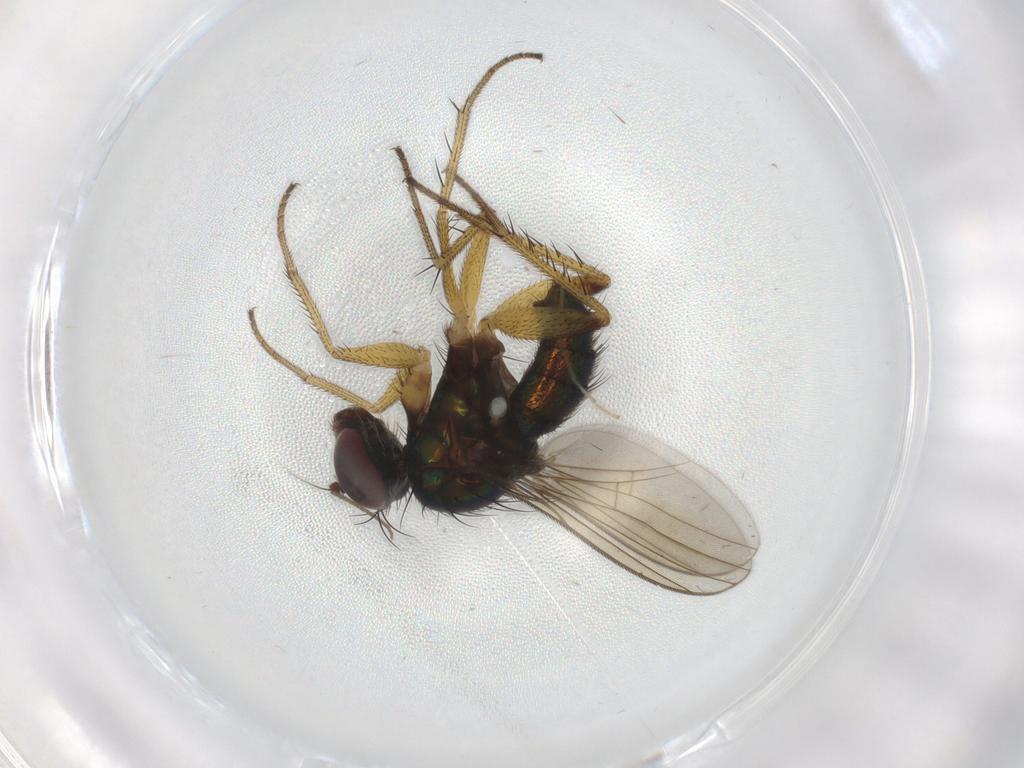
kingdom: Animalia
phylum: Arthropoda
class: Insecta
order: Diptera
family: Dolichopodidae
